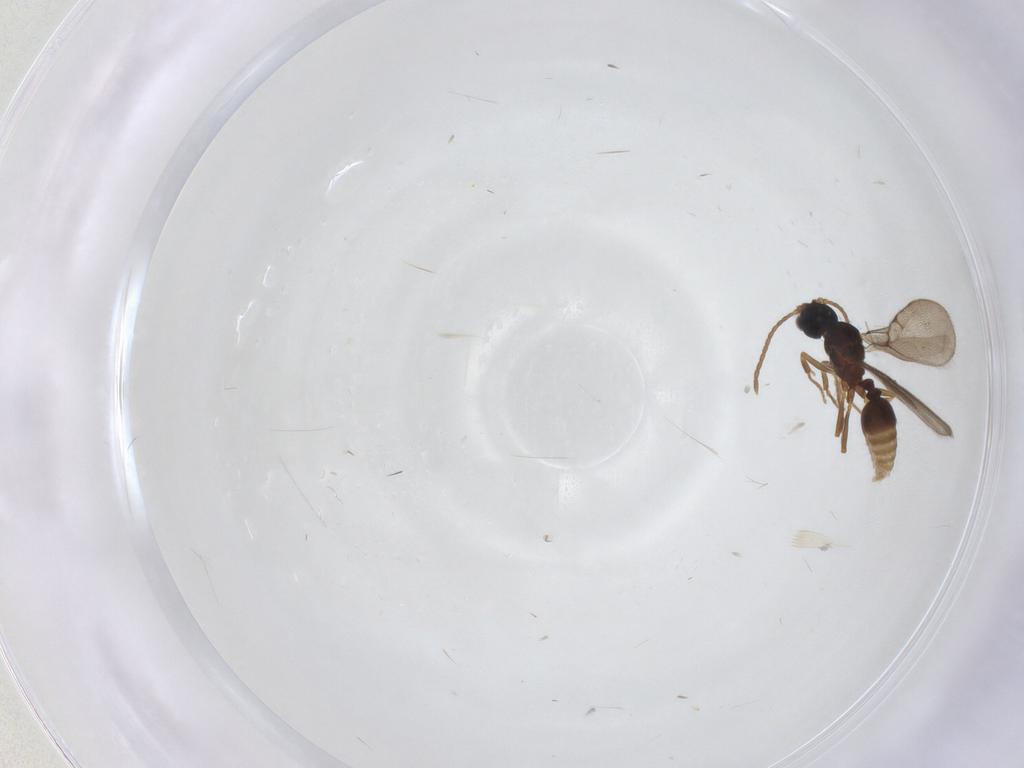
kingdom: Animalia
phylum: Arthropoda
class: Insecta
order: Hymenoptera
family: Formicidae
